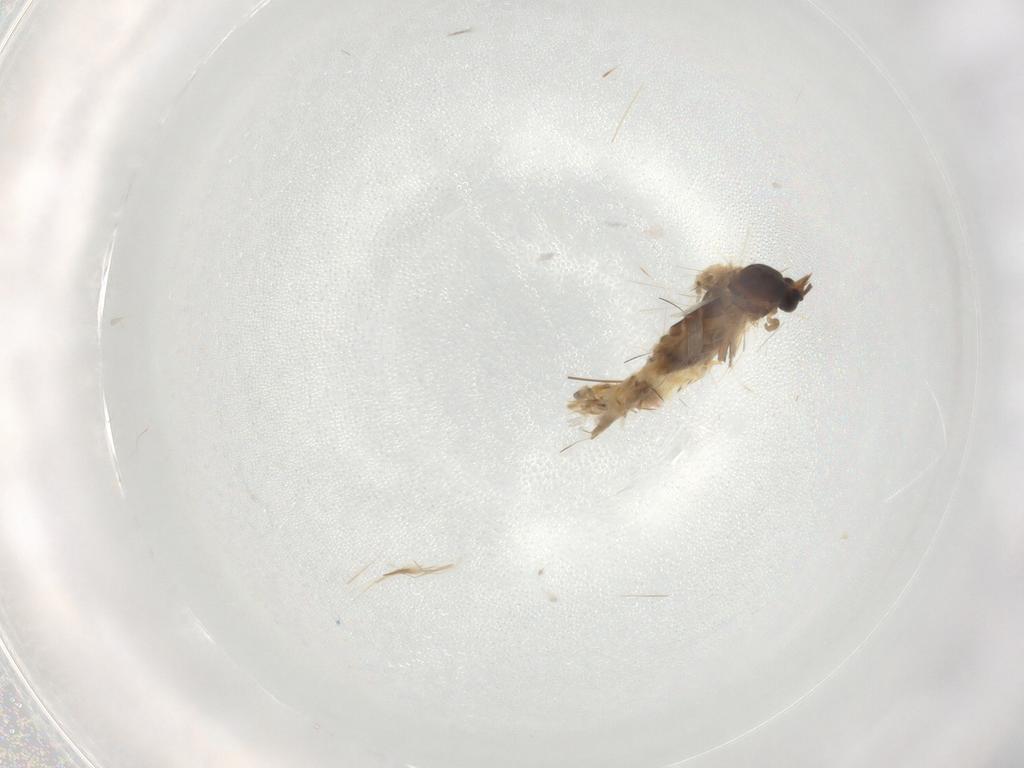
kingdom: Animalia
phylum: Arthropoda
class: Insecta
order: Diptera
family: Ceratopogonidae
